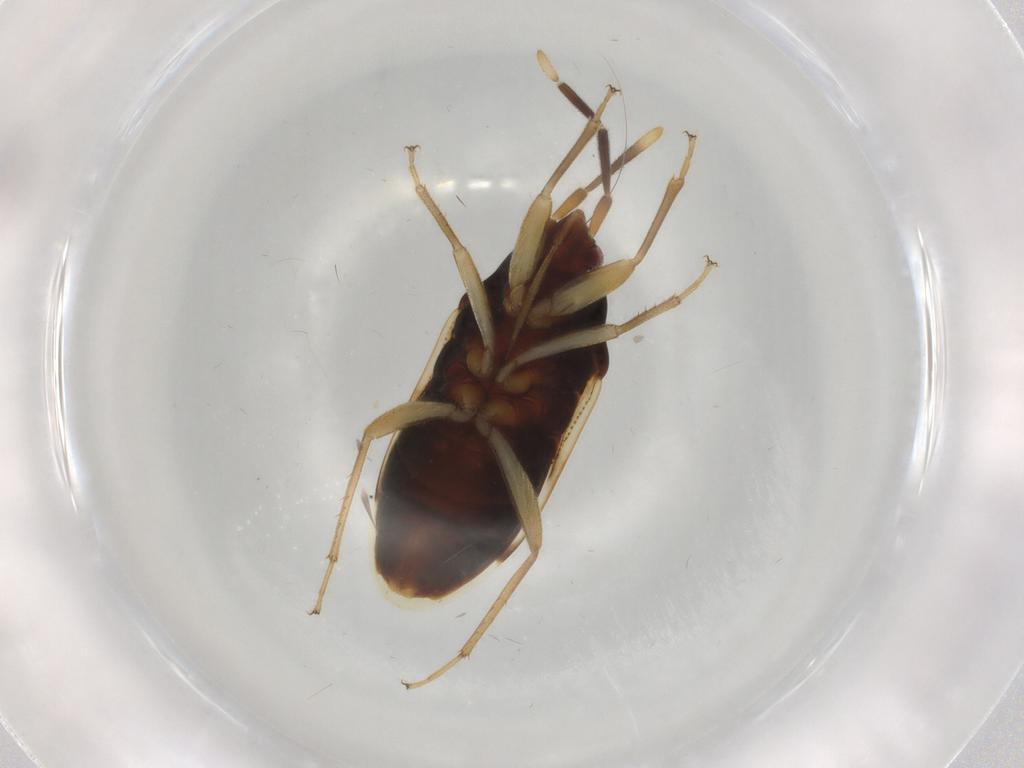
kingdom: Animalia
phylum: Arthropoda
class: Insecta
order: Hemiptera
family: Rhyparochromidae
